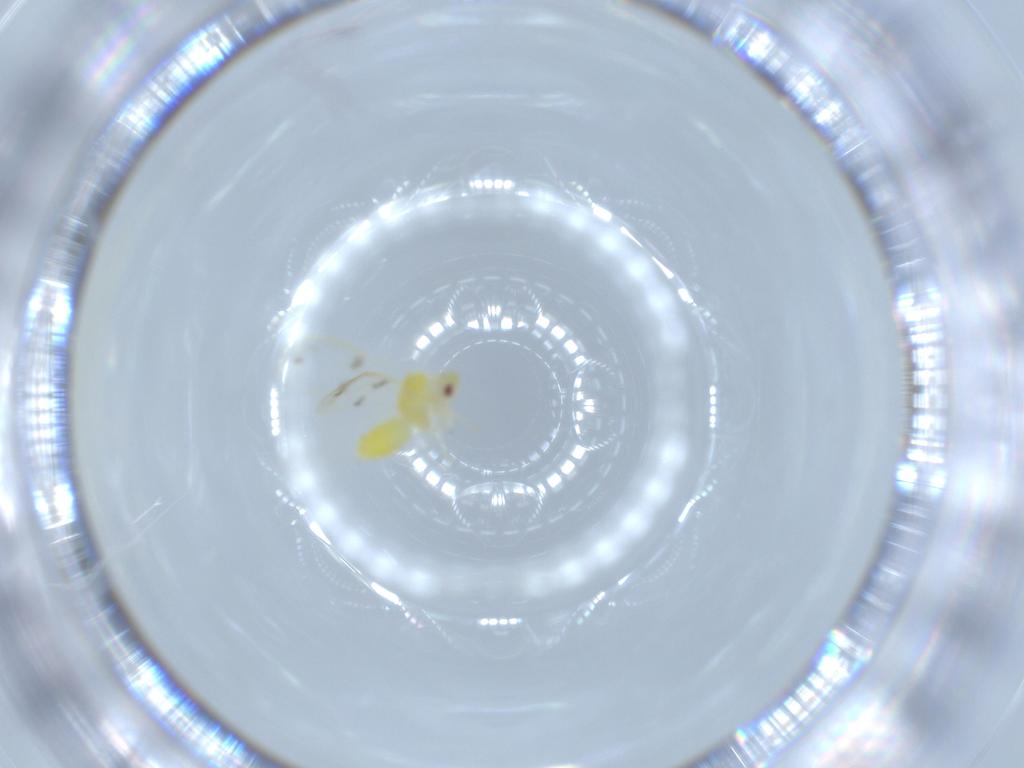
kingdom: Animalia
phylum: Arthropoda
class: Insecta
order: Hemiptera
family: Aleyrodidae
